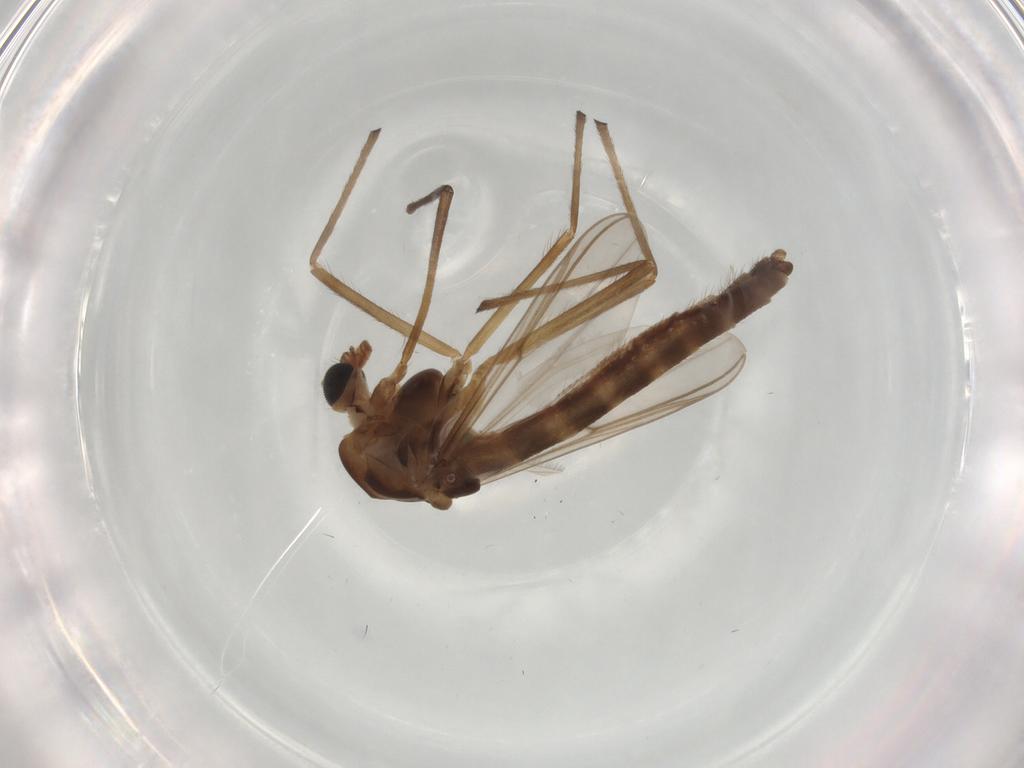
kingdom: Animalia
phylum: Arthropoda
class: Insecta
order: Diptera
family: Chironomidae
